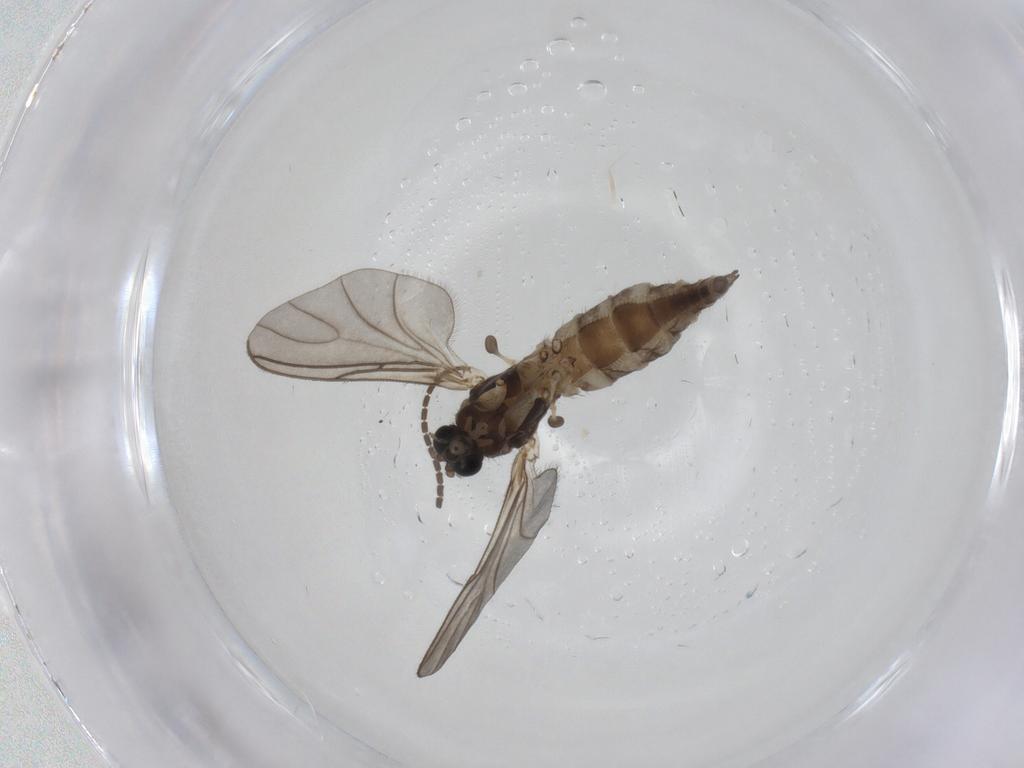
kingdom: Animalia
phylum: Arthropoda
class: Insecta
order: Diptera
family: Sciaridae
